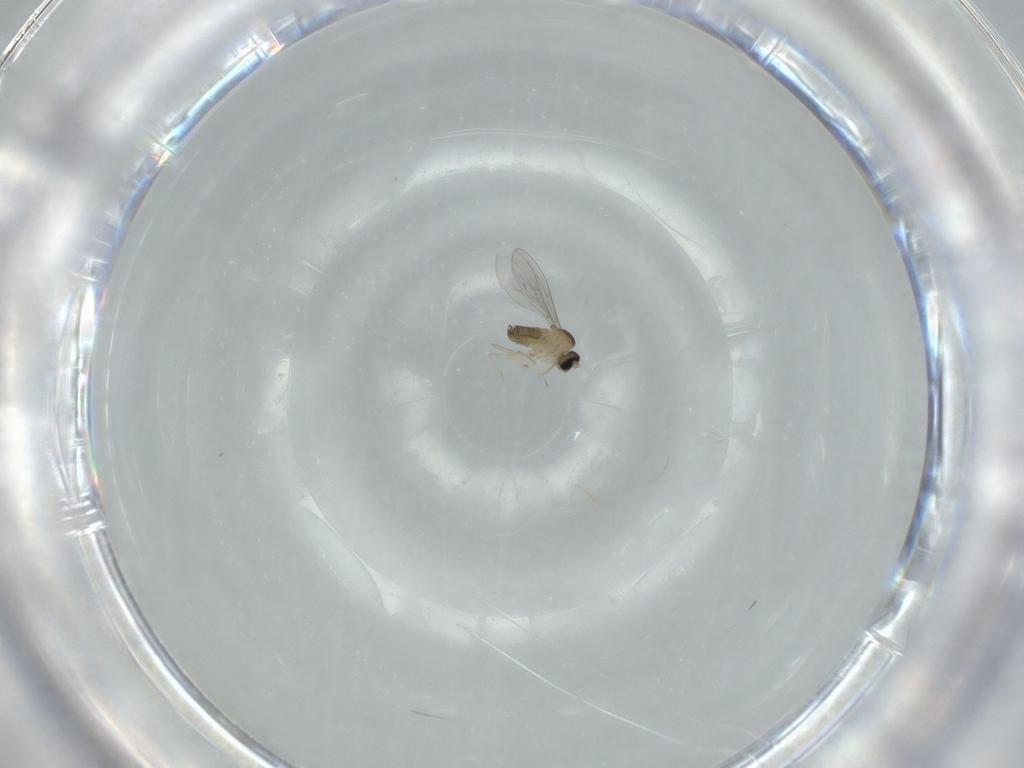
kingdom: Animalia
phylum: Arthropoda
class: Insecta
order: Diptera
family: Cecidomyiidae
